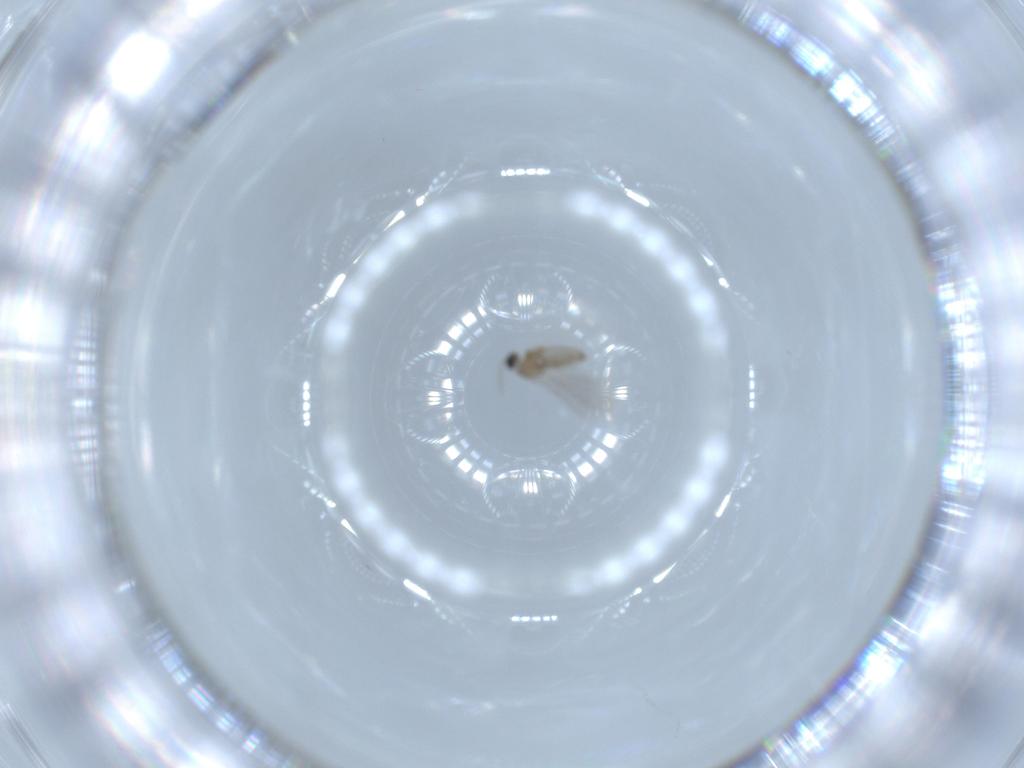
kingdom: Animalia
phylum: Arthropoda
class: Insecta
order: Diptera
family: Cecidomyiidae
